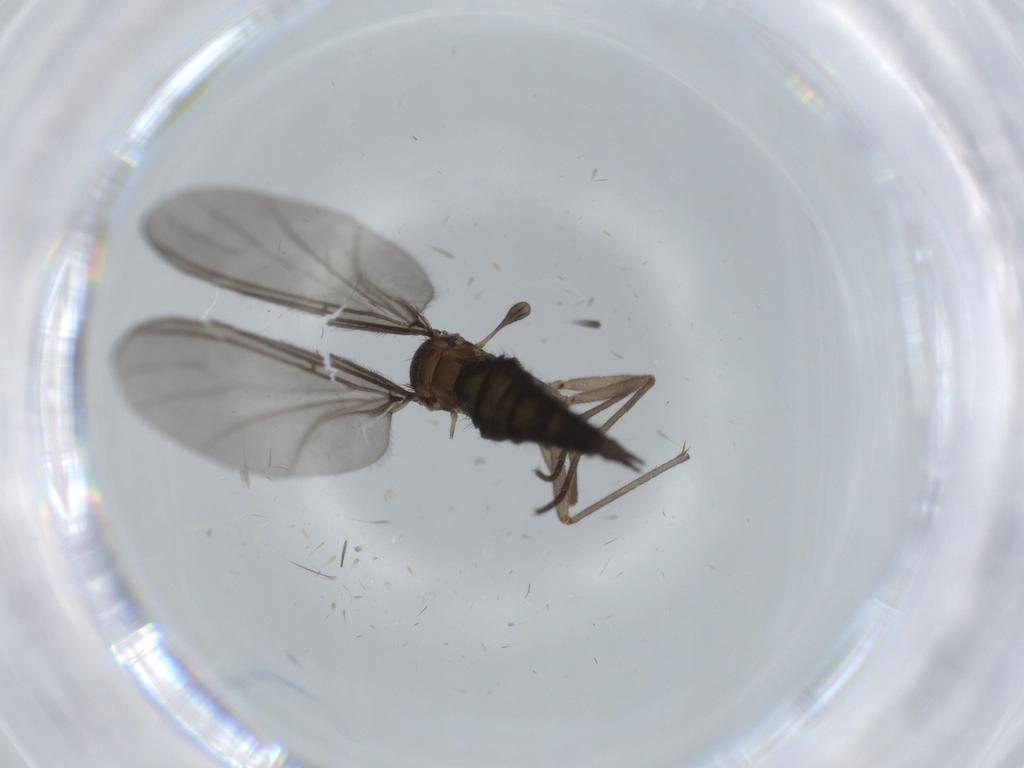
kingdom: Animalia
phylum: Arthropoda
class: Insecta
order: Diptera
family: Sciaridae
